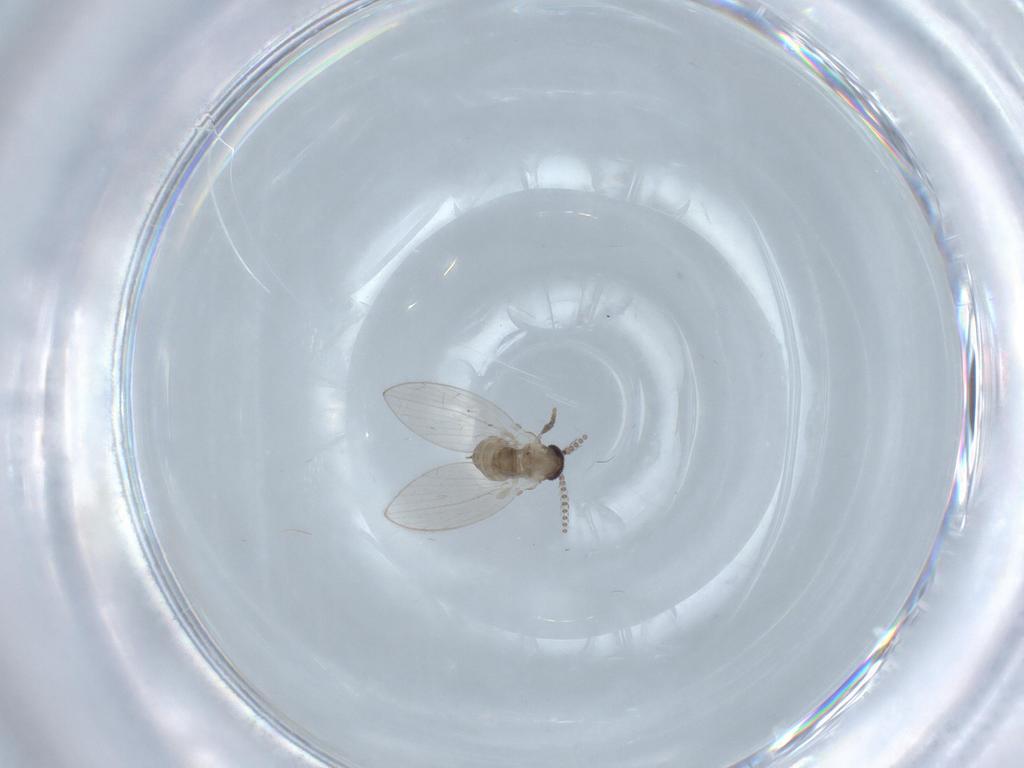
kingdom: Animalia
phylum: Arthropoda
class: Insecta
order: Diptera
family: Psychodidae
